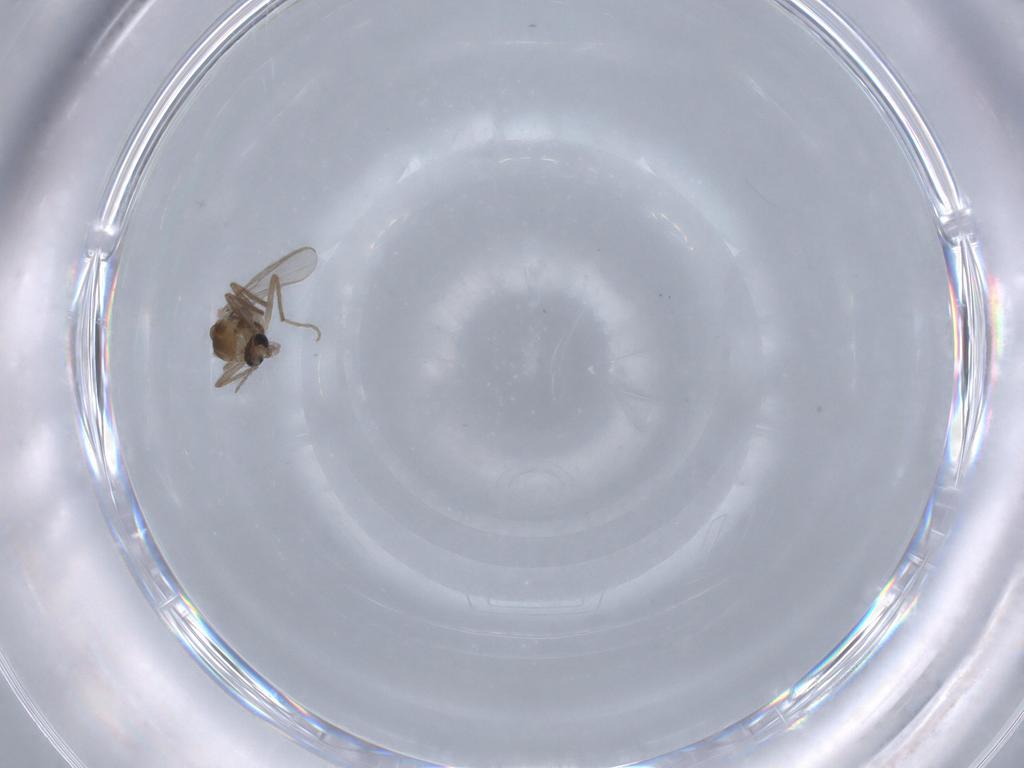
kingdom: Animalia
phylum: Arthropoda
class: Insecta
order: Diptera
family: Chironomidae
